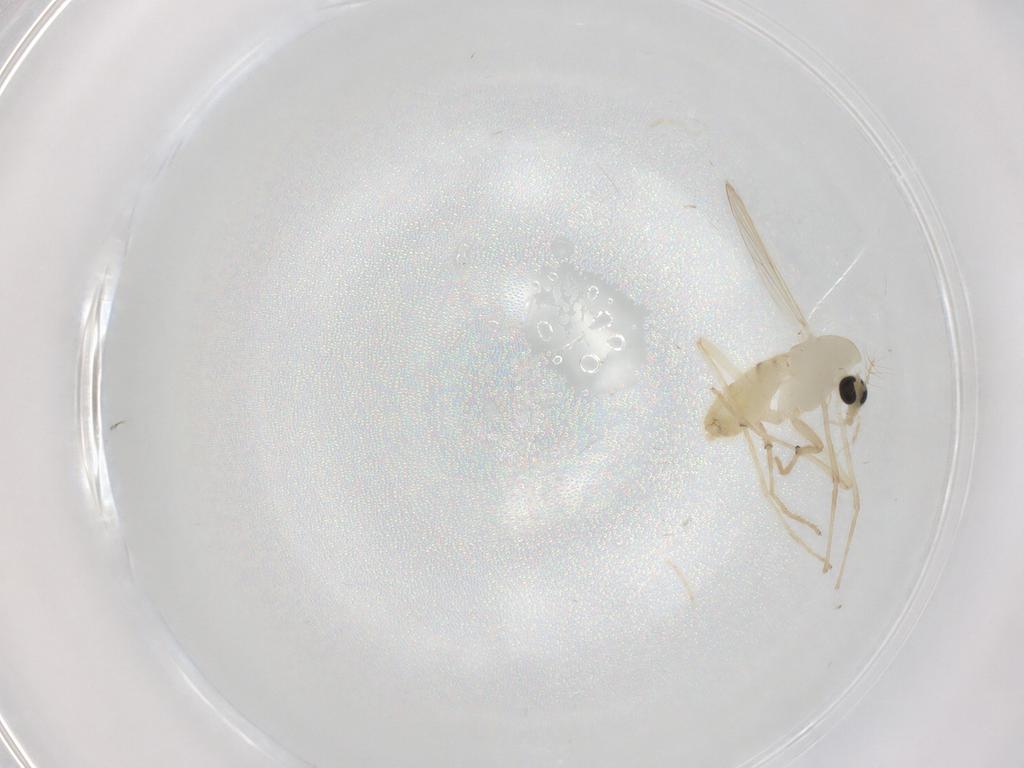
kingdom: Animalia
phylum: Arthropoda
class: Insecta
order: Diptera
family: Chironomidae
